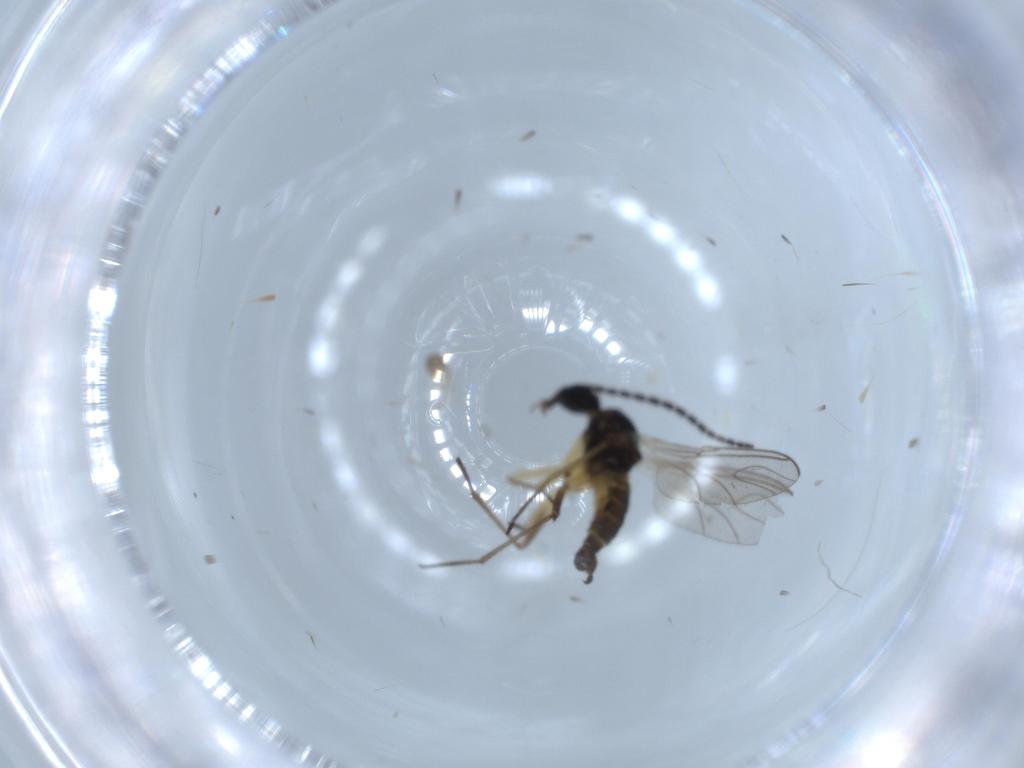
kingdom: Animalia
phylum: Arthropoda
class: Insecta
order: Diptera
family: Sciaridae
